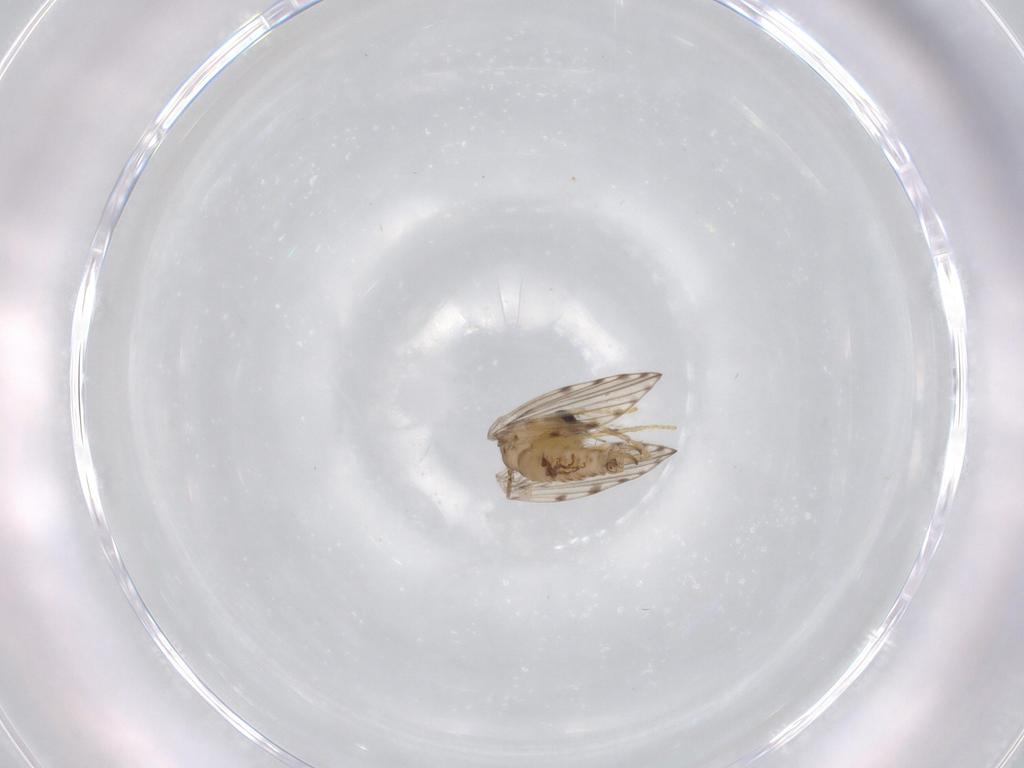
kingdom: Animalia
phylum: Arthropoda
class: Insecta
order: Diptera
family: Psychodidae
